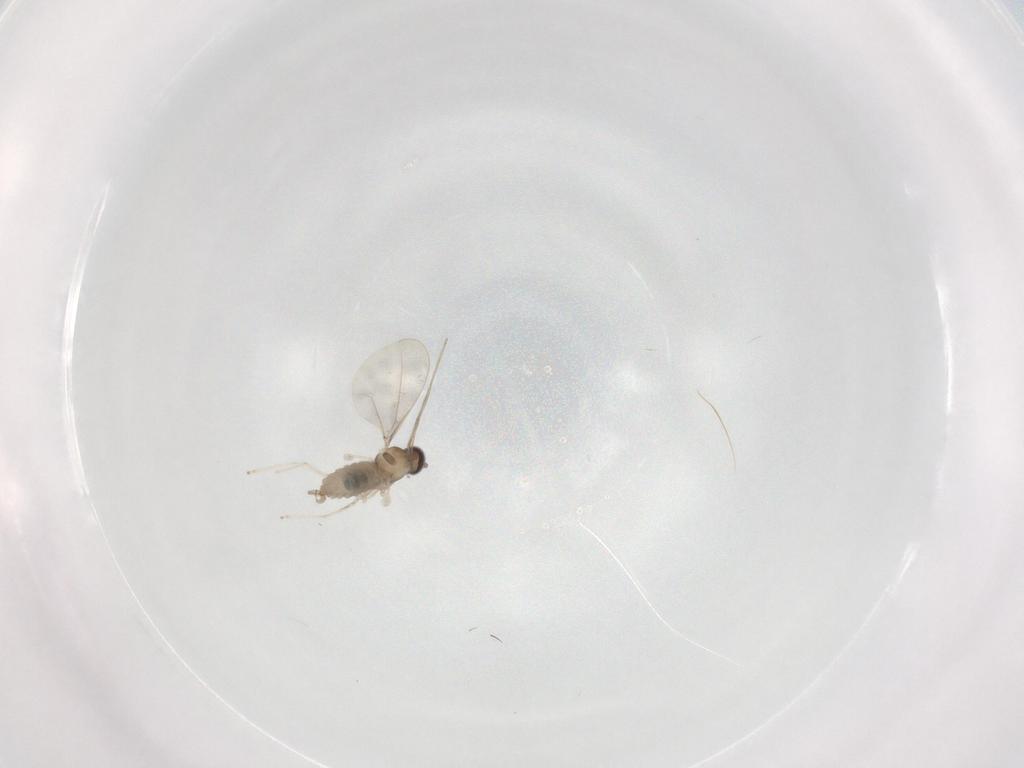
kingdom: Animalia
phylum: Arthropoda
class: Insecta
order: Diptera
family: Cecidomyiidae
